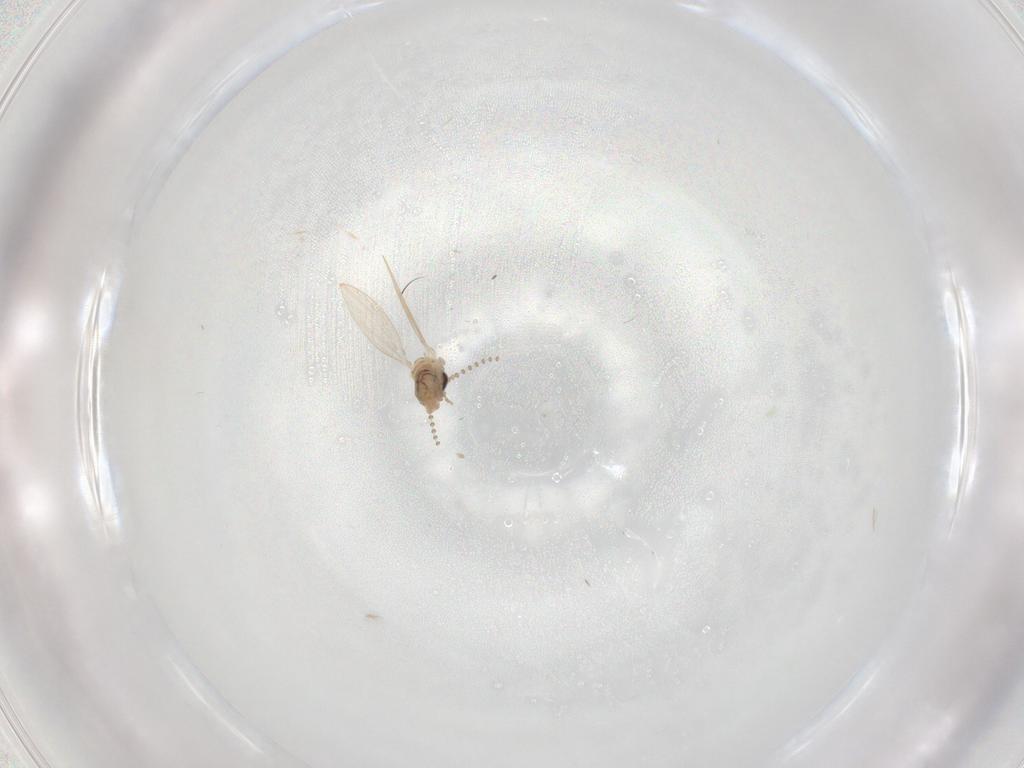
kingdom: Animalia
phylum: Arthropoda
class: Insecta
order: Diptera
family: Psychodidae
